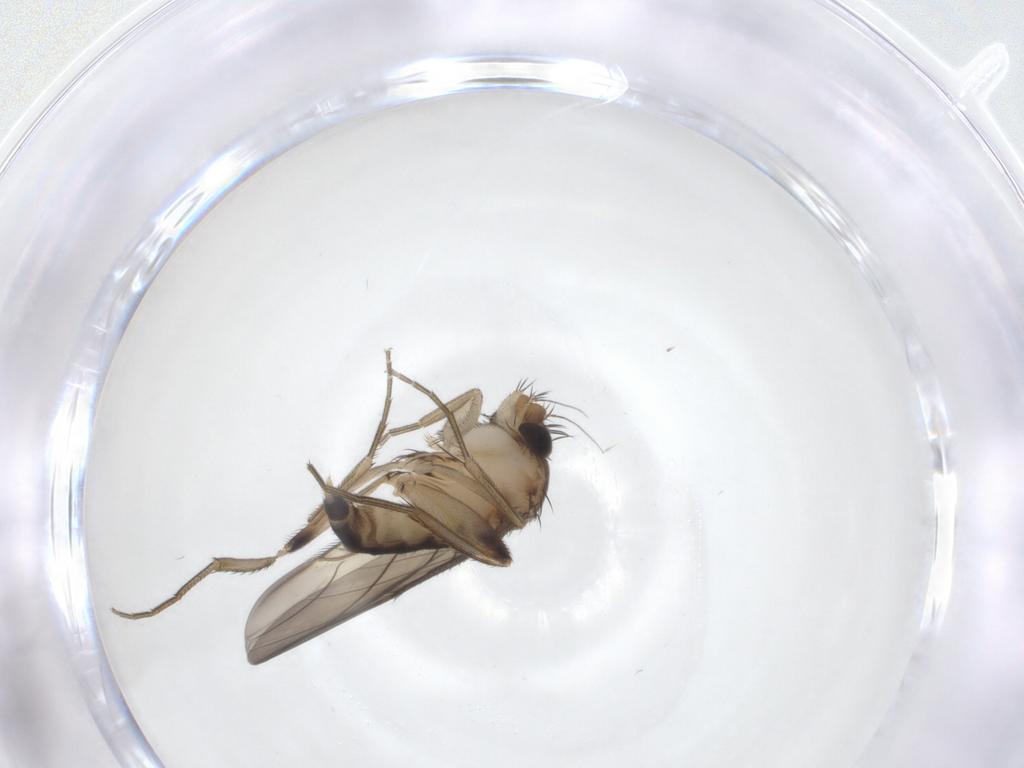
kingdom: Animalia
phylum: Arthropoda
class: Insecta
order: Diptera
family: Phoridae
